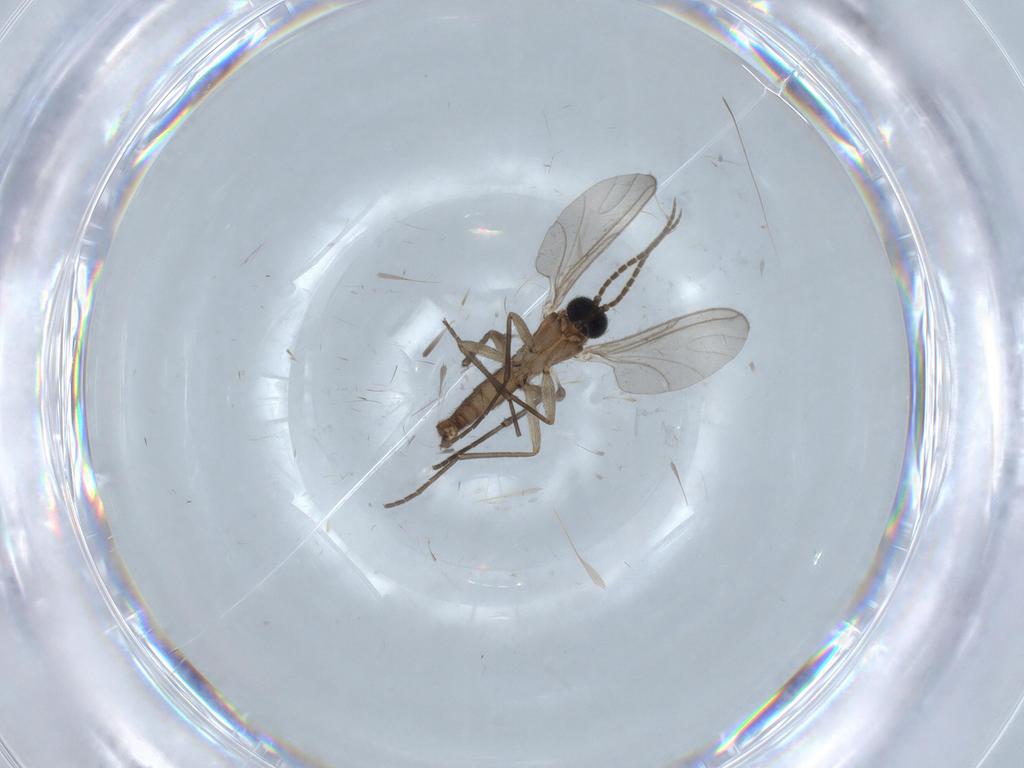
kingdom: Animalia
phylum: Arthropoda
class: Insecta
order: Diptera
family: Sciaridae
